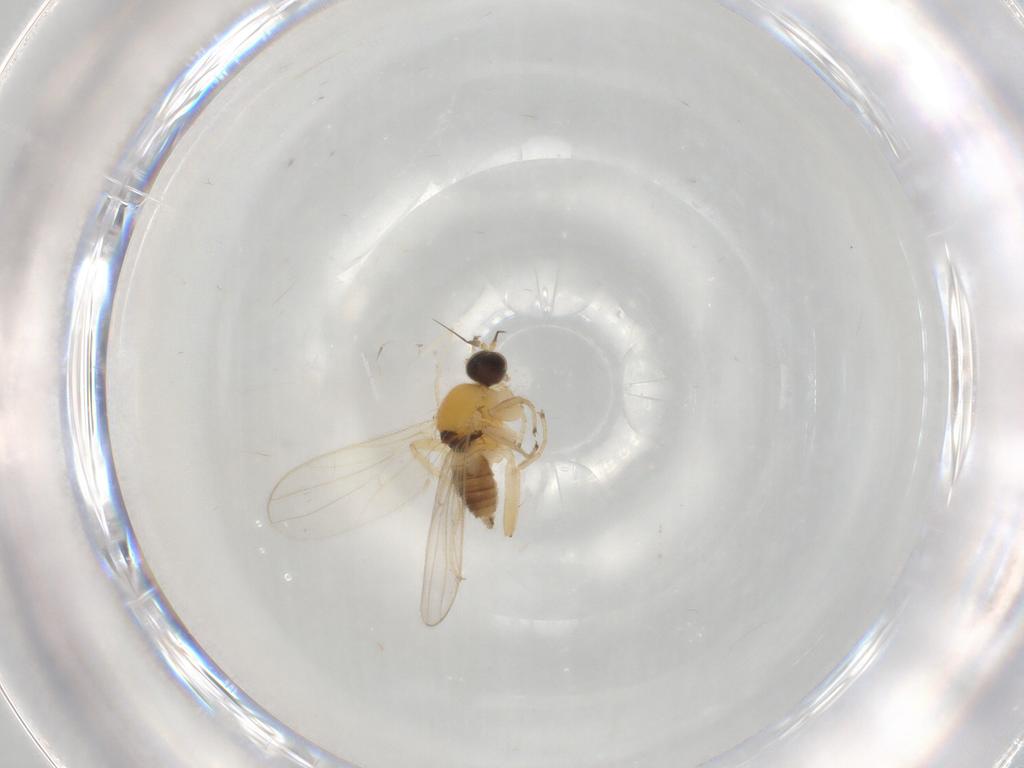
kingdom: Animalia
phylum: Arthropoda
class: Insecta
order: Diptera
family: Hybotidae
